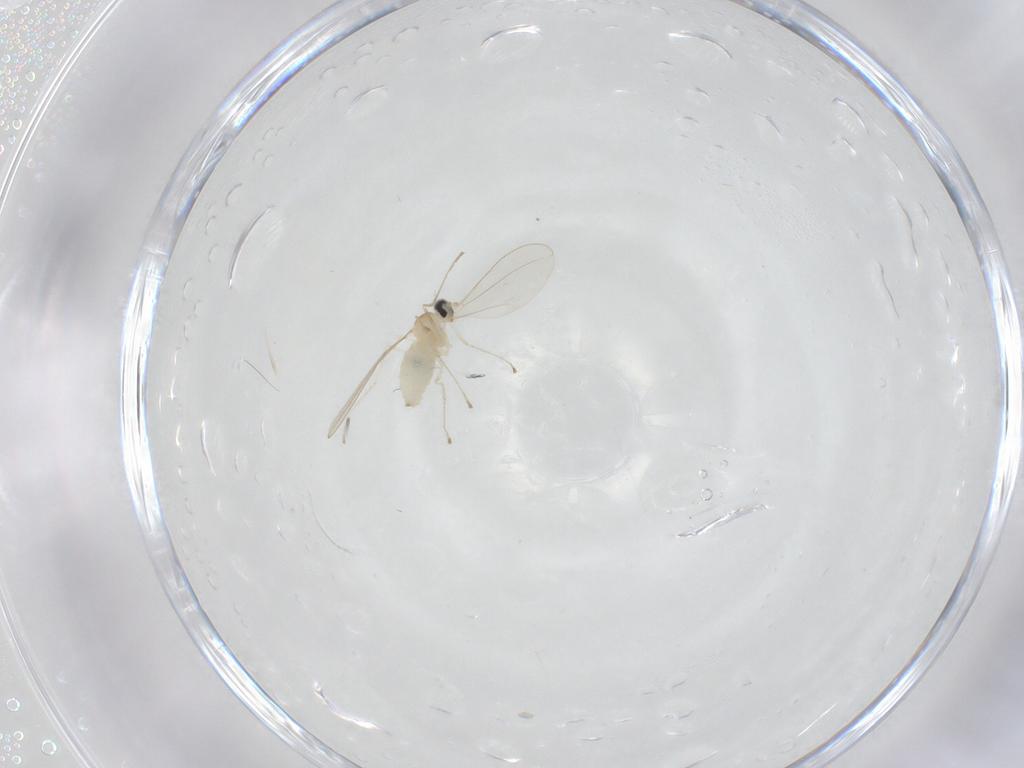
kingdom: Animalia
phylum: Arthropoda
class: Insecta
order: Diptera
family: Cecidomyiidae
